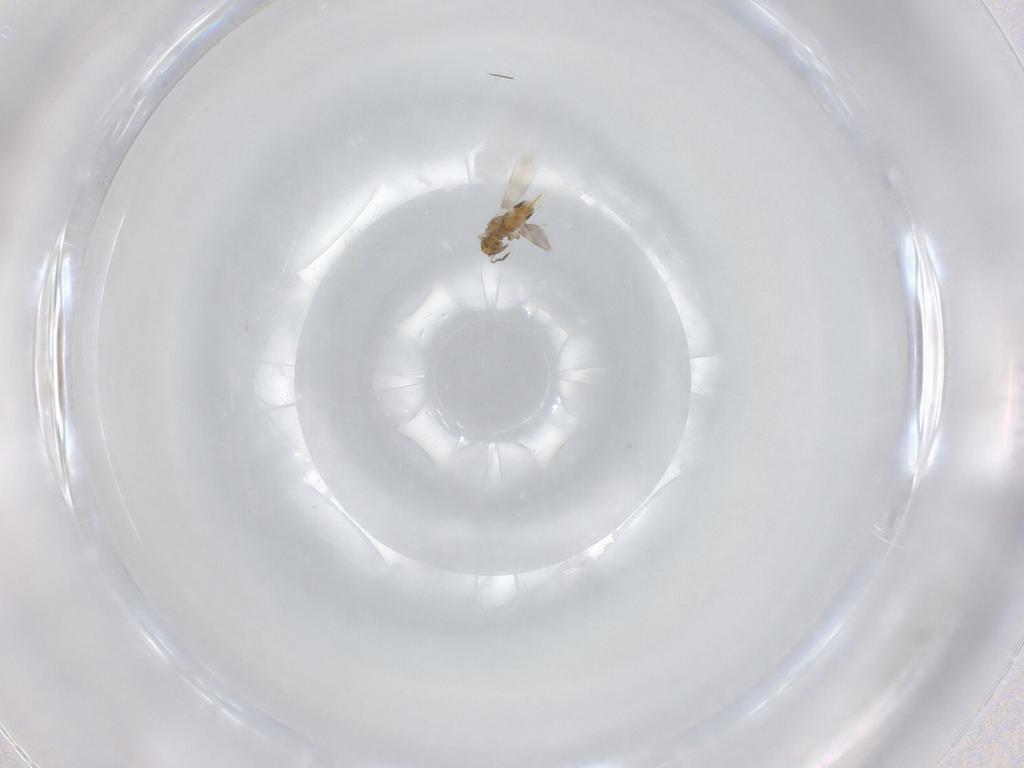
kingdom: Animalia
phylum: Arthropoda
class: Insecta
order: Hymenoptera
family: Aphelinidae
